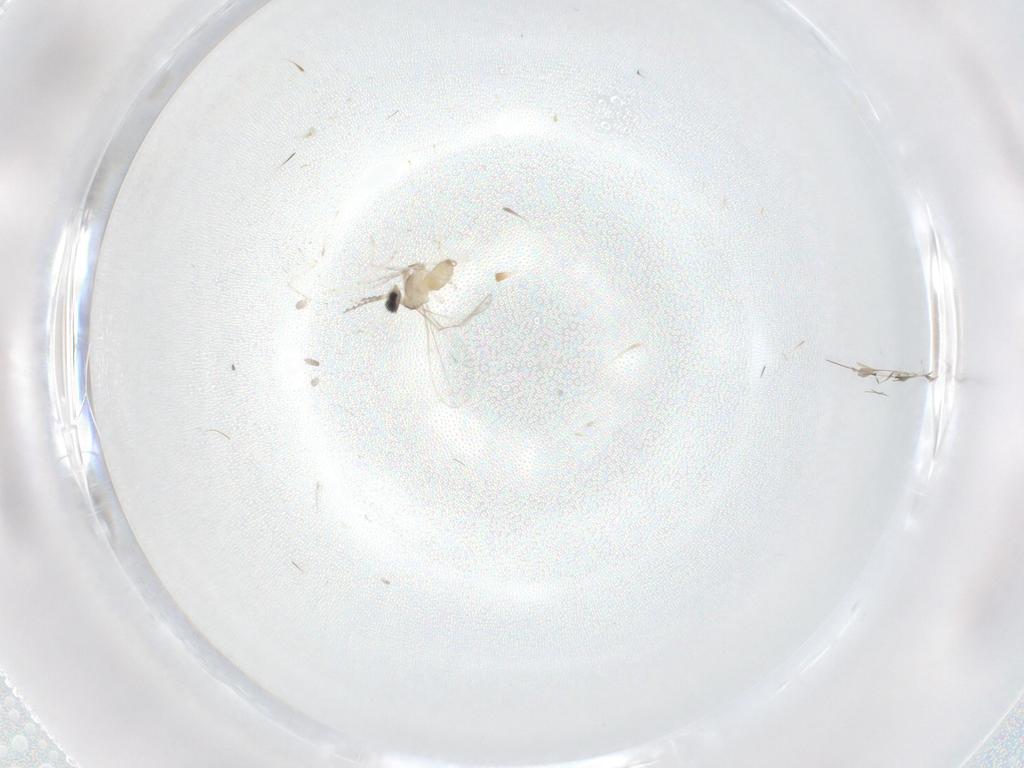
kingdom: Animalia
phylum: Arthropoda
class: Insecta
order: Diptera
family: Cecidomyiidae
